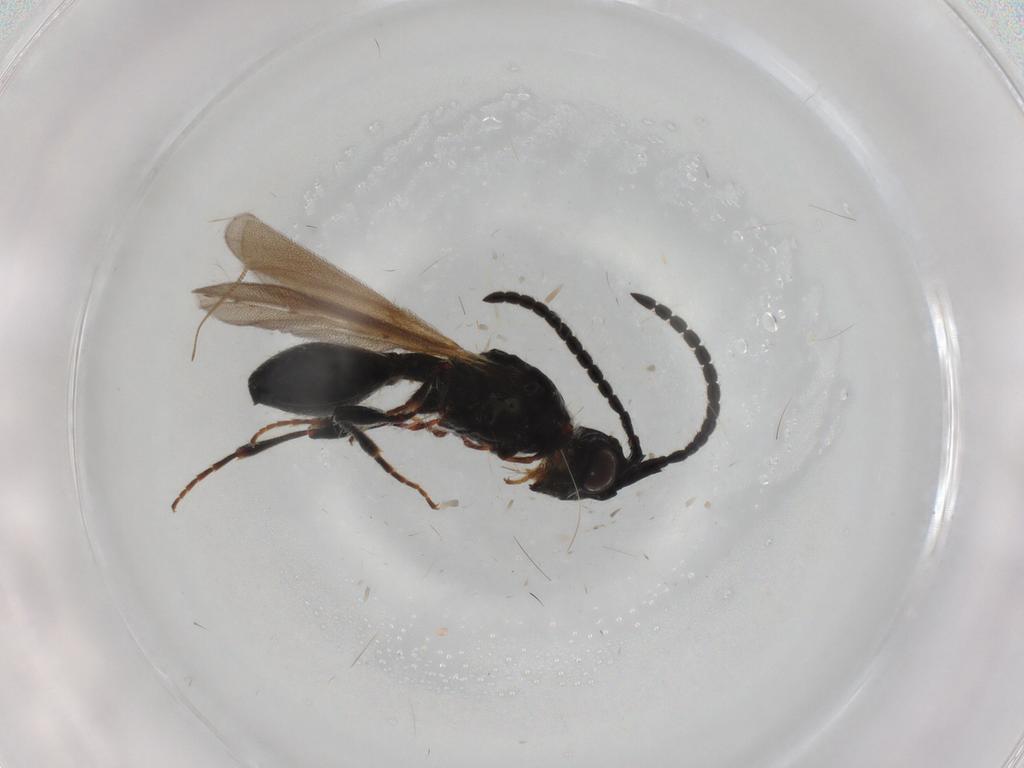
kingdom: Animalia
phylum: Arthropoda
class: Insecta
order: Hymenoptera
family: Diapriidae
